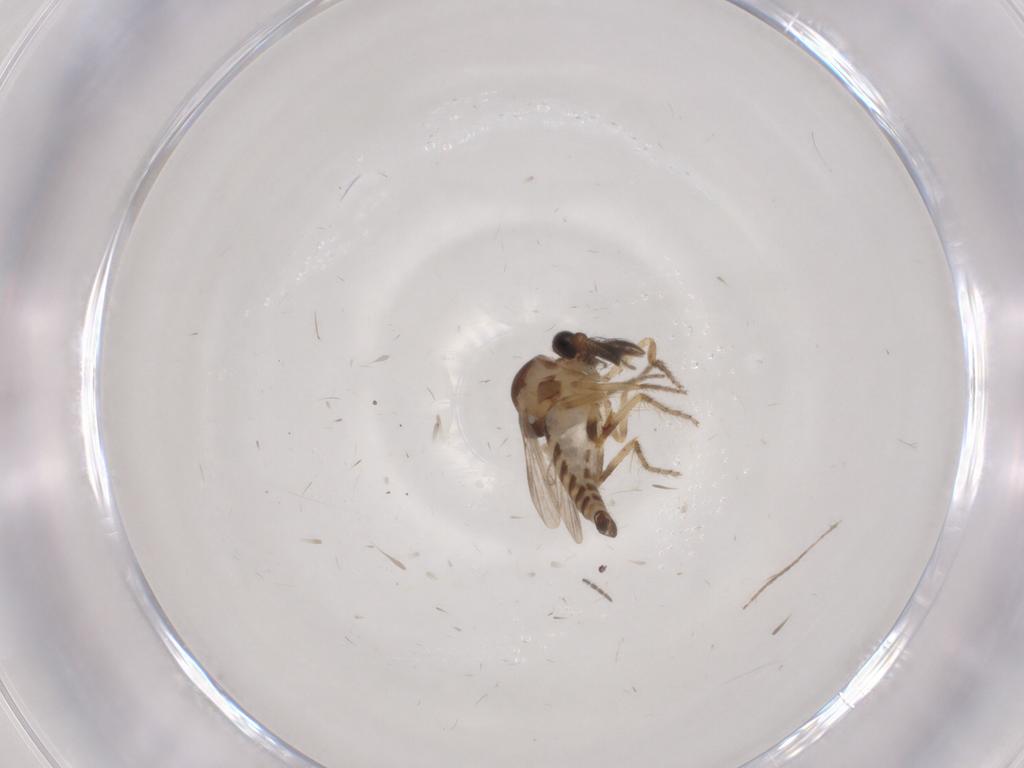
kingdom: Animalia
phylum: Arthropoda
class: Insecta
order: Diptera
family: Ceratopogonidae
